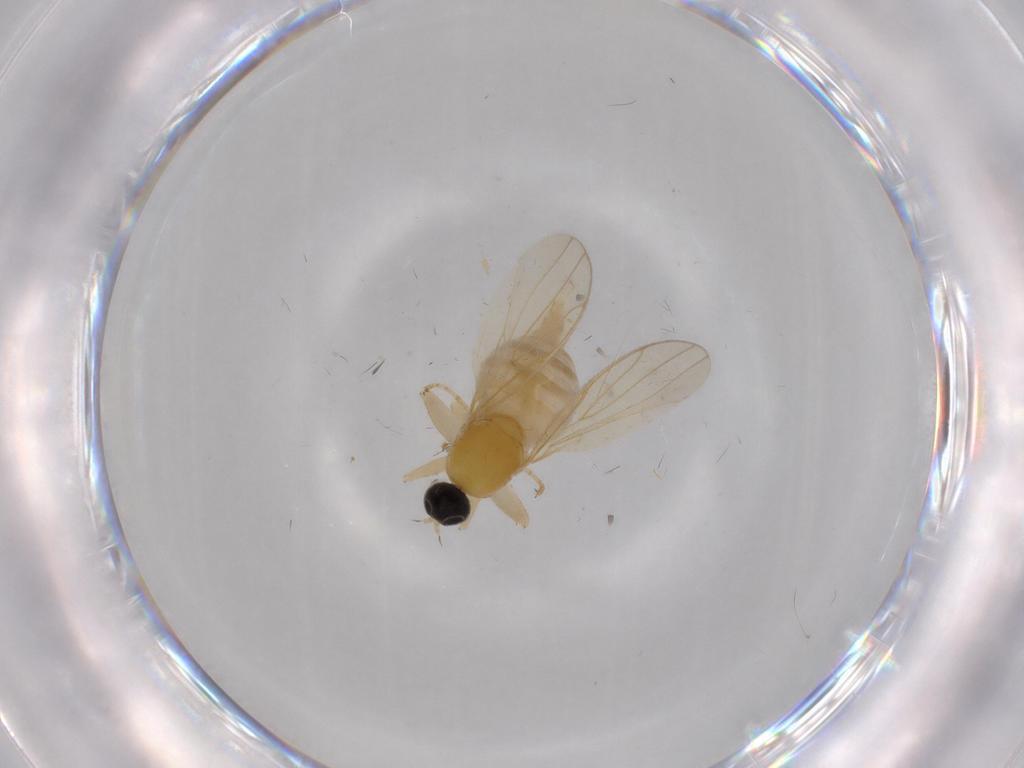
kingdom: Animalia
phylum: Arthropoda
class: Insecta
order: Diptera
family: Hybotidae
